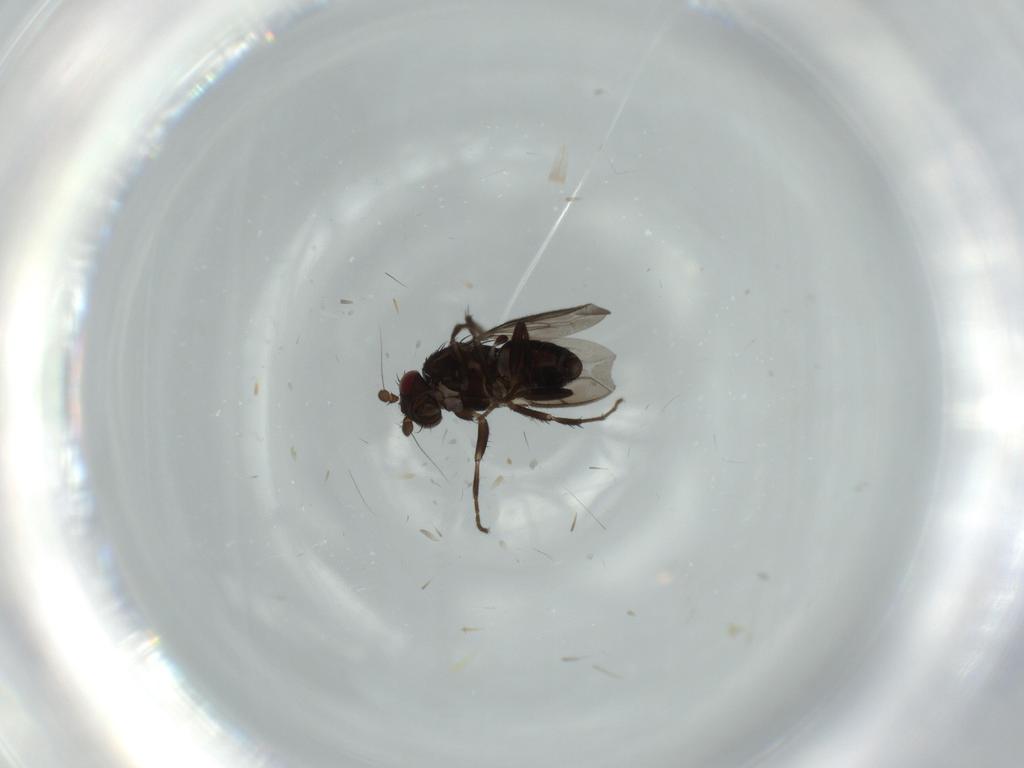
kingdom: Animalia
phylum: Arthropoda
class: Insecta
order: Diptera
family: Sphaeroceridae
